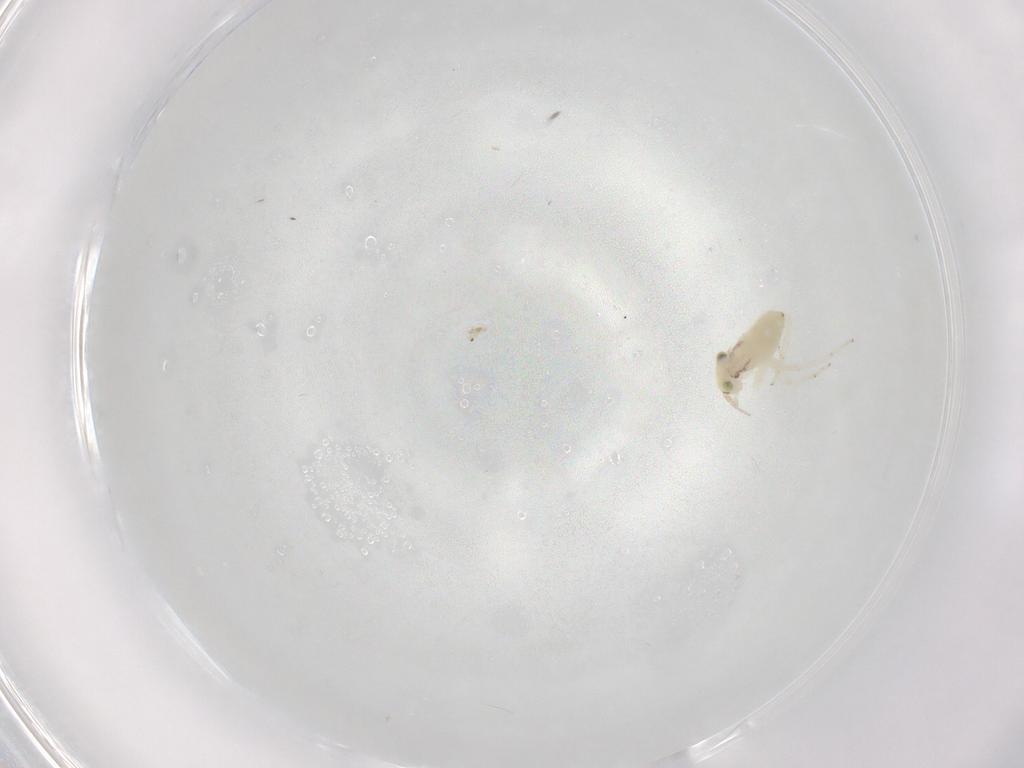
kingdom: Animalia
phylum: Arthropoda
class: Insecta
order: Psocodea
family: Lepidopsocidae
